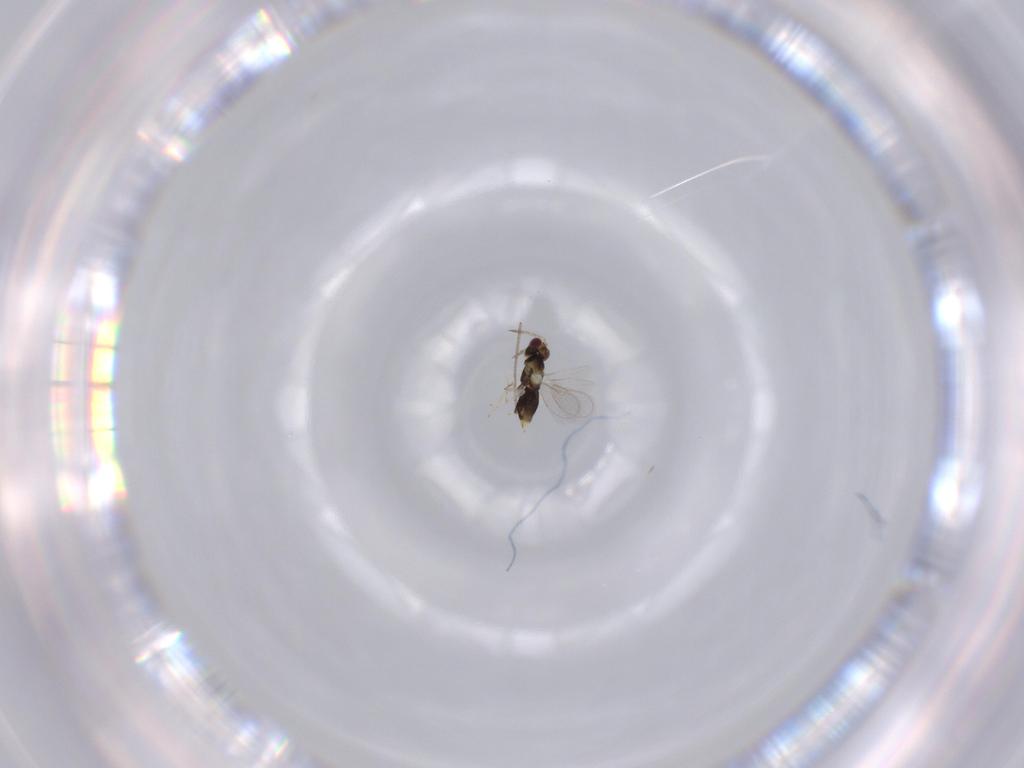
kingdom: Animalia
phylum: Arthropoda
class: Insecta
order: Hymenoptera
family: Aphelinidae
